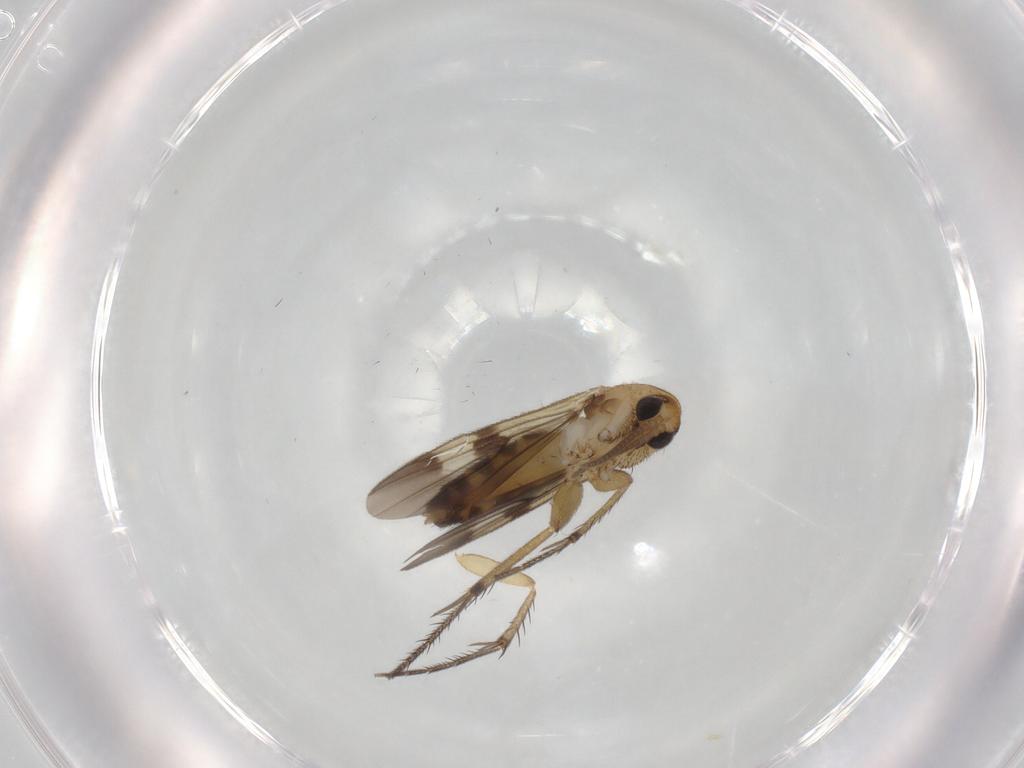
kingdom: Animalia
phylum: Arthropoda
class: Insecta
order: Diptera
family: Mycetophilidae
